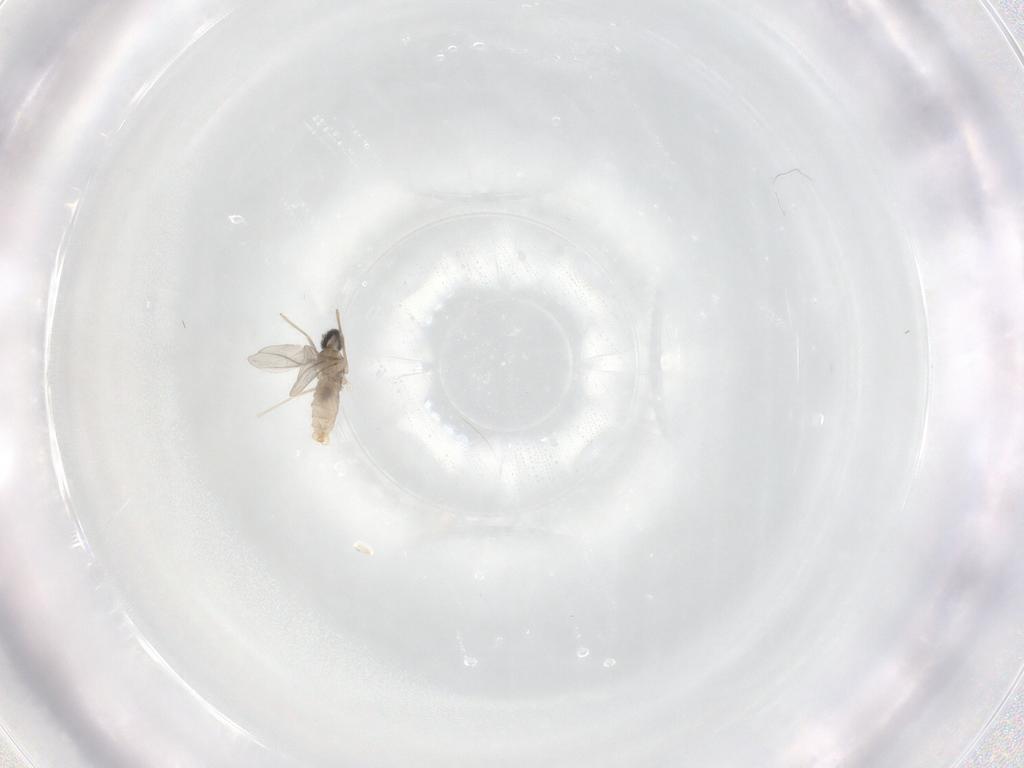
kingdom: Animalia
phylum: Arthropoda
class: Insecta
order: Diptera
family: Cecidomyiidae
